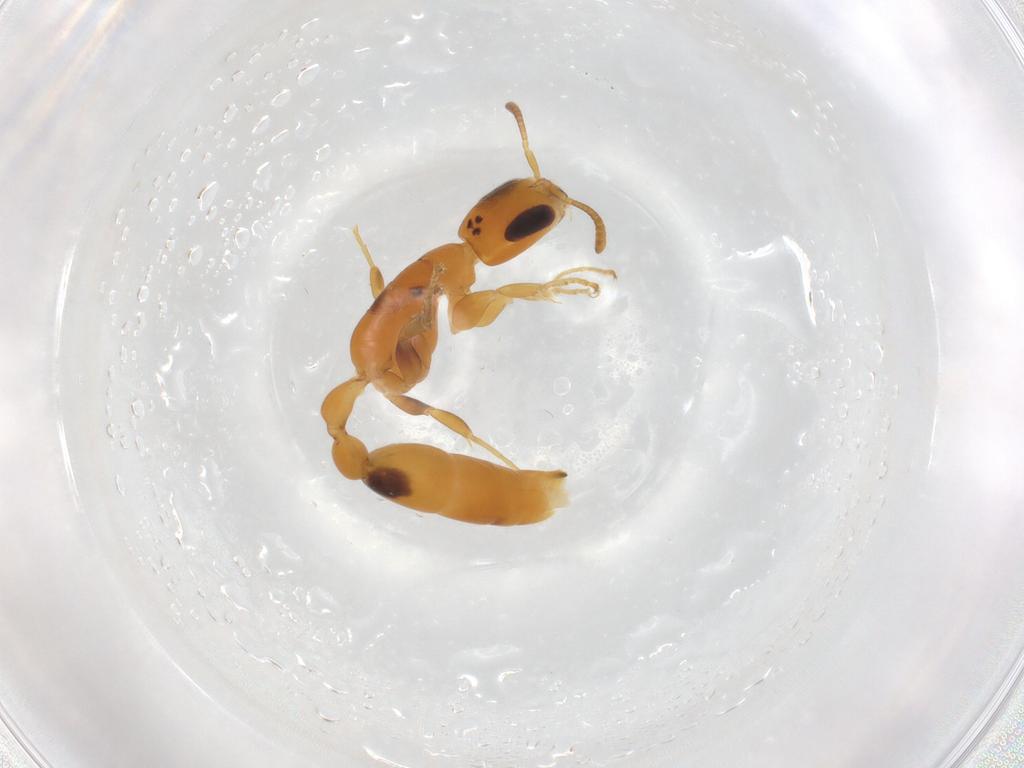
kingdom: Animalia
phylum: Arthropoda
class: Insecta
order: Hymenoptera
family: Formicidae
